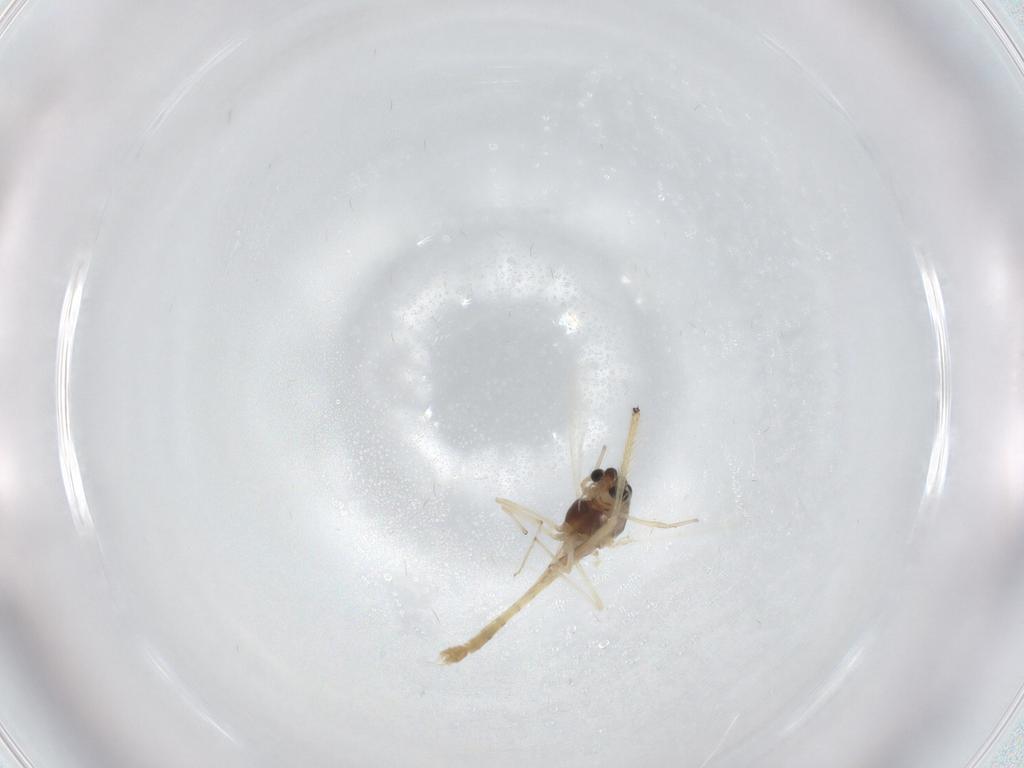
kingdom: Animalia
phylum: Arthropoda
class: Insecta
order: Diptera
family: Chironomidae
